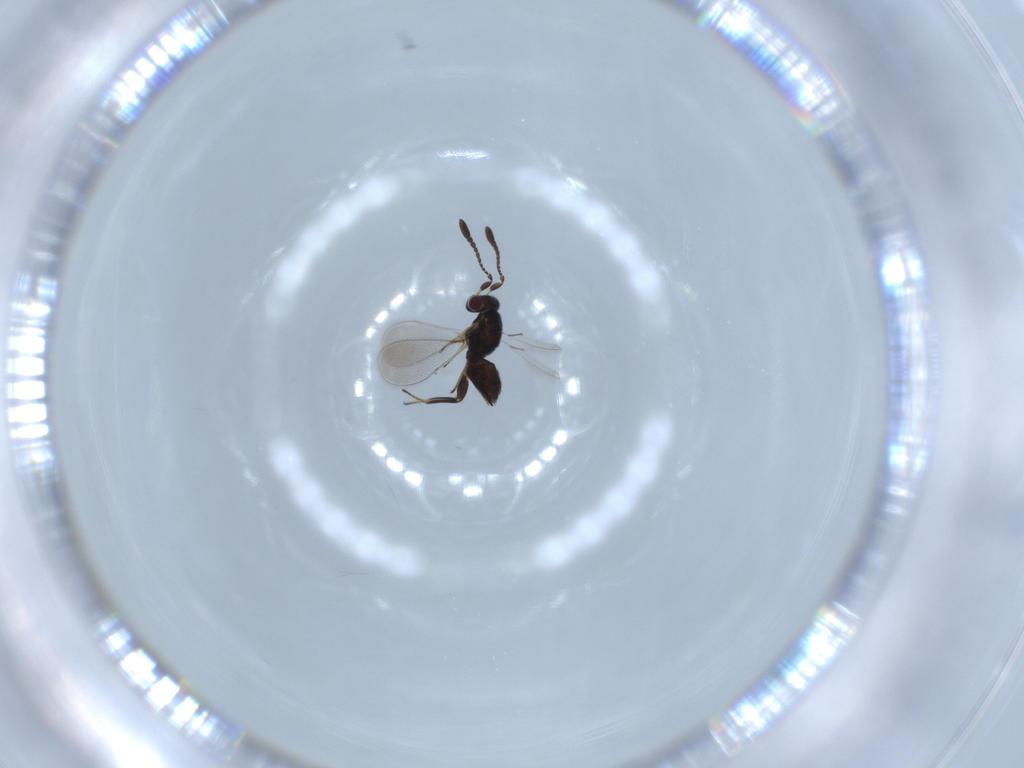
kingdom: Animalia
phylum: Arthropoda
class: Insecta
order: Hymenoptera
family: Mymaridae
